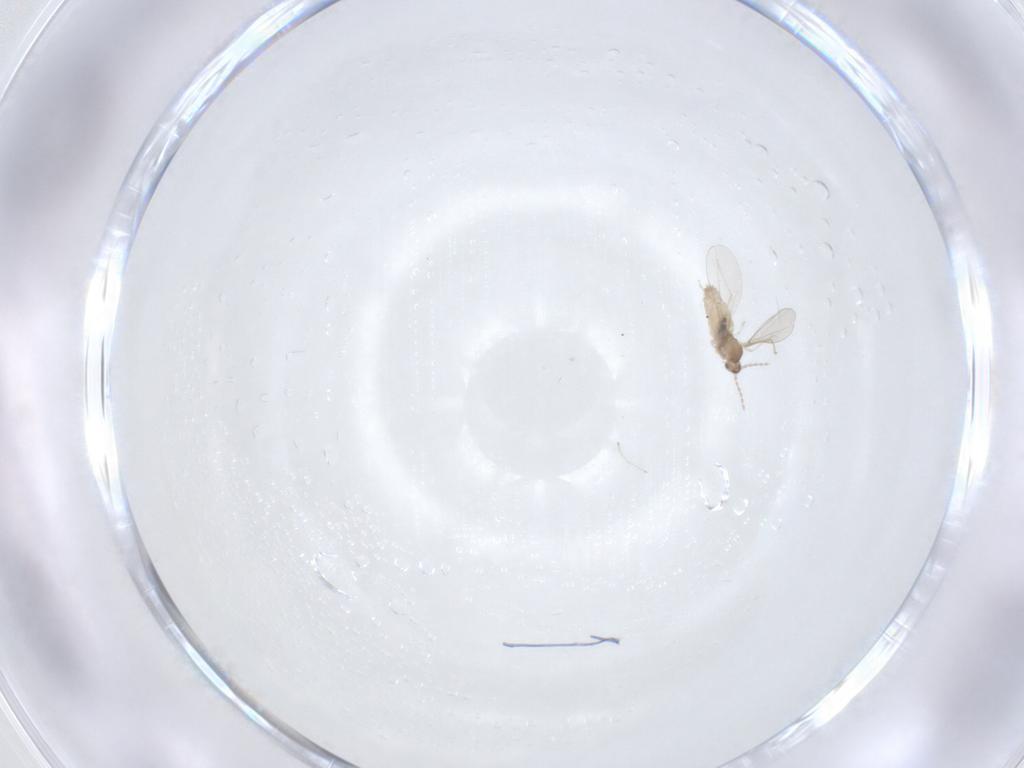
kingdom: Animalia
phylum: Arthropoda
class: Insecta
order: Diptera
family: Cecidomyiidae
